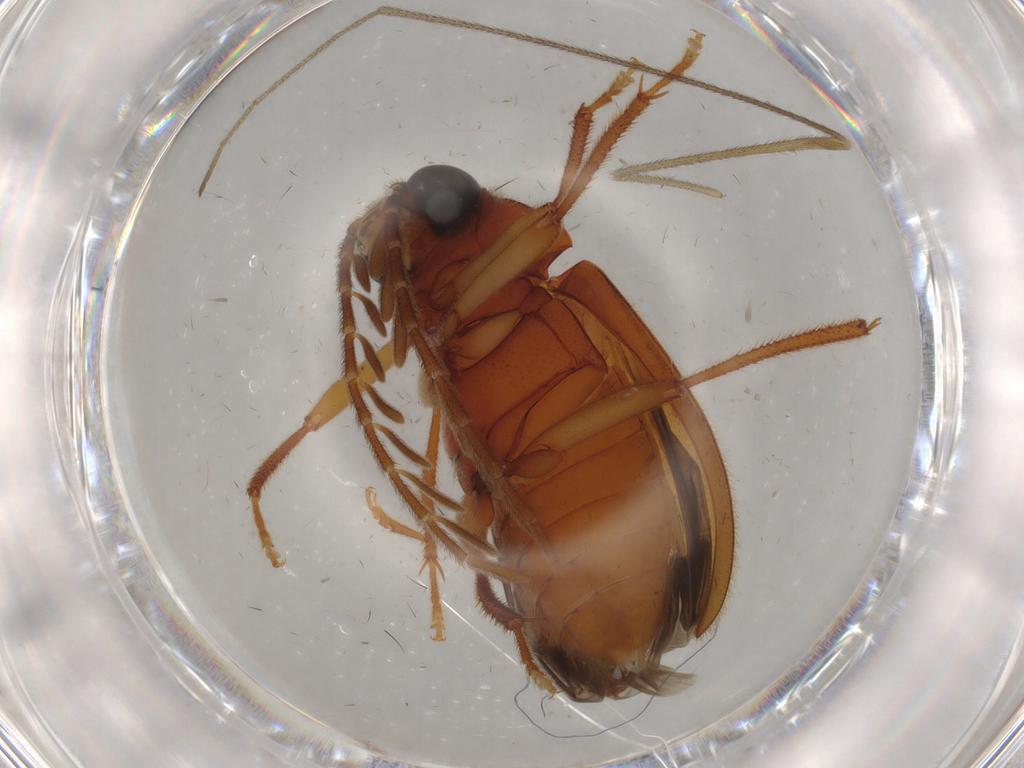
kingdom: Animalia
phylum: Arthropoda
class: Insecta
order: Coleoptera
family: Ptilodactylidae
